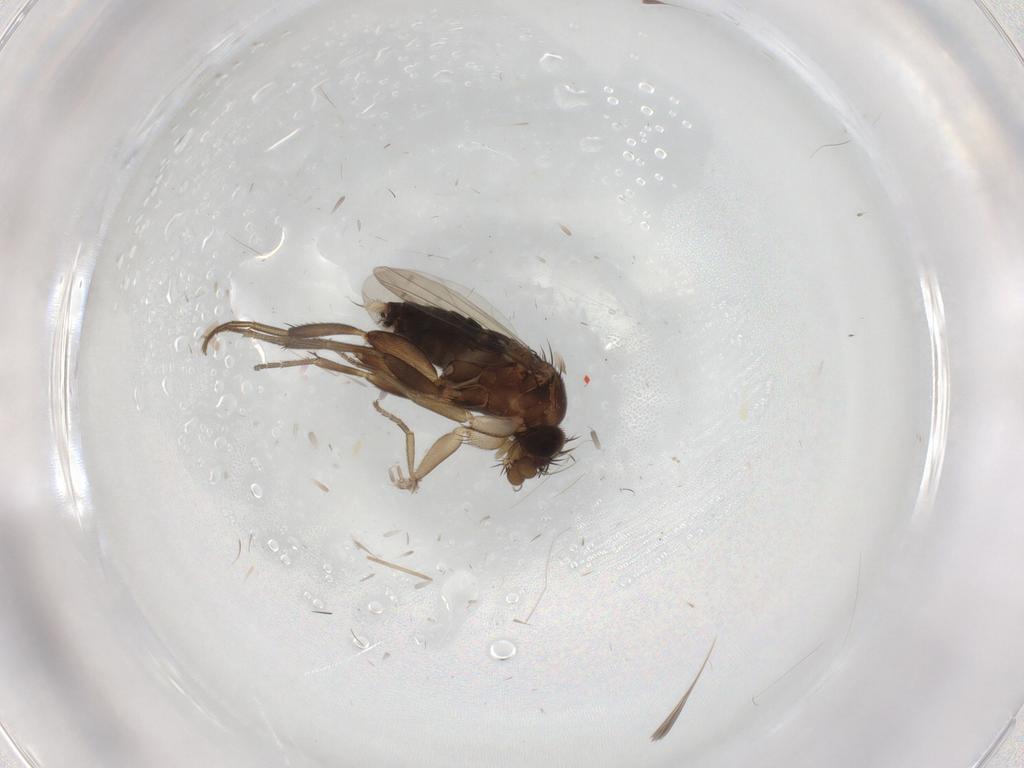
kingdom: Animalia
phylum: Arthropoda
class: Insecta
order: Diptera
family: Phoridae
